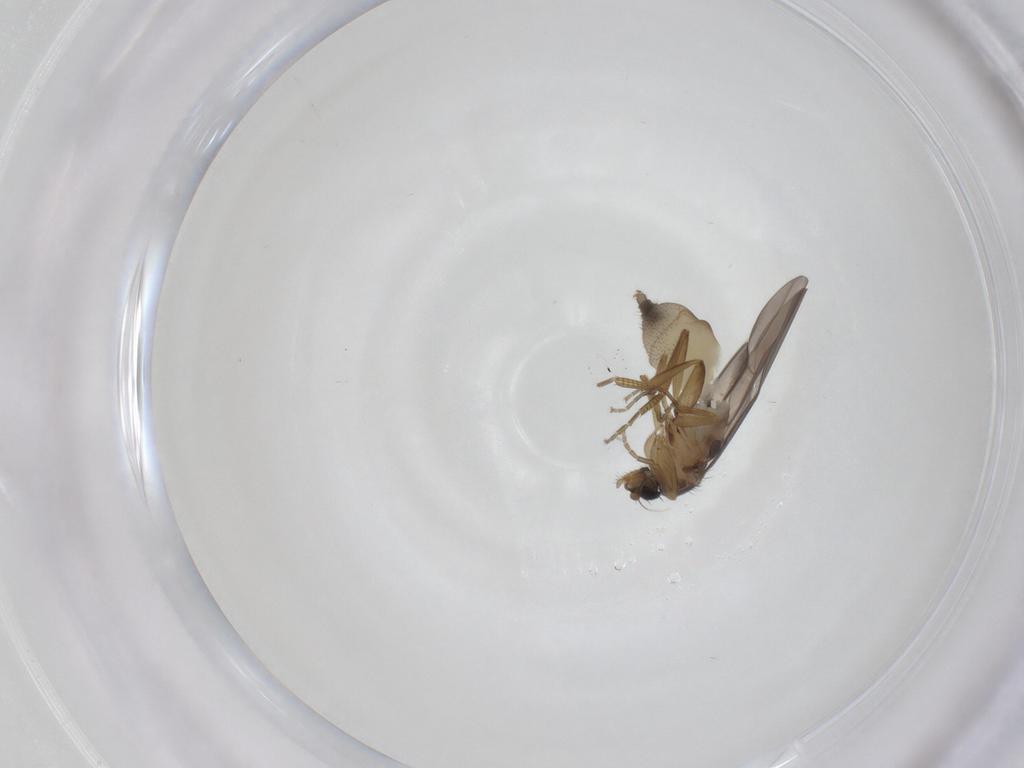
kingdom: Animalia
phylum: Arthropoda
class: Insecta
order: Diptera
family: Phoridae
